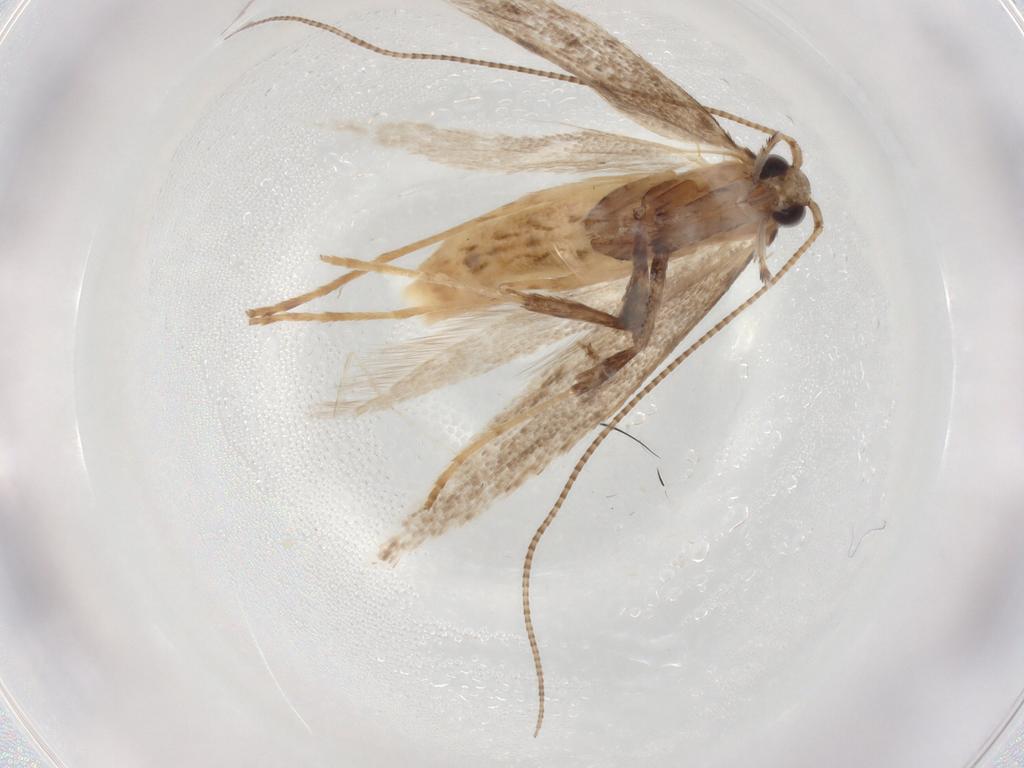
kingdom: Animalia
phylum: Arthropoda
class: Insecta
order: Lepidoptera
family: Gracillariidae
